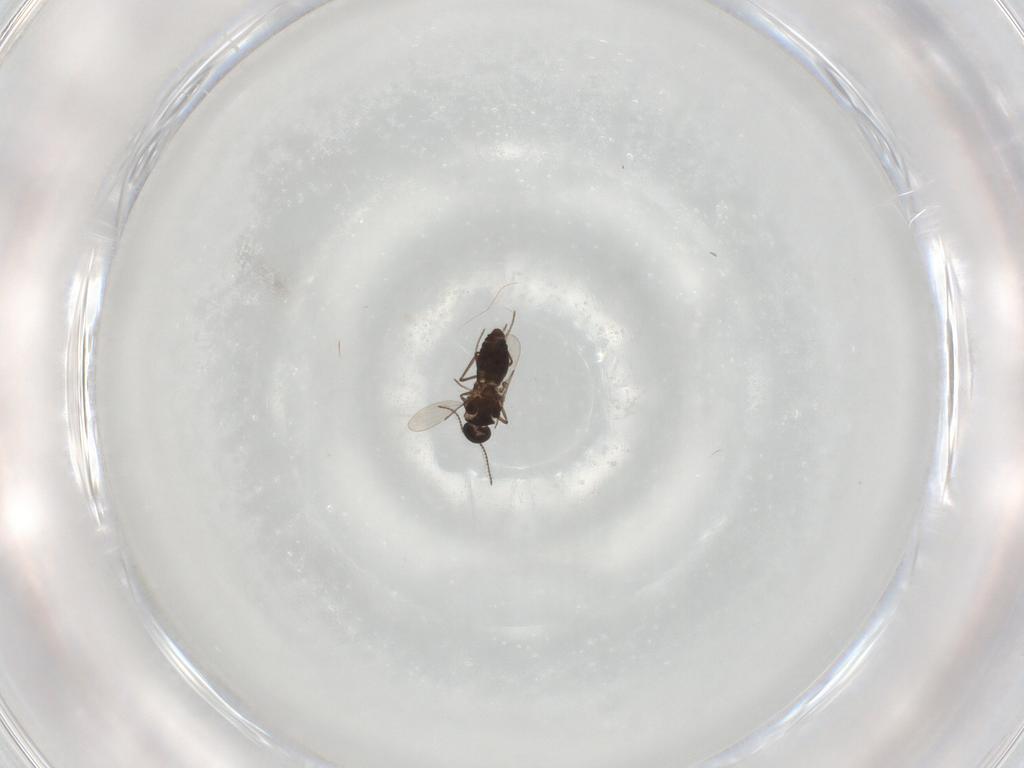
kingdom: Animalia
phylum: Arthropoda
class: Insecta
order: Diptera
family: Ceratopogonidae
